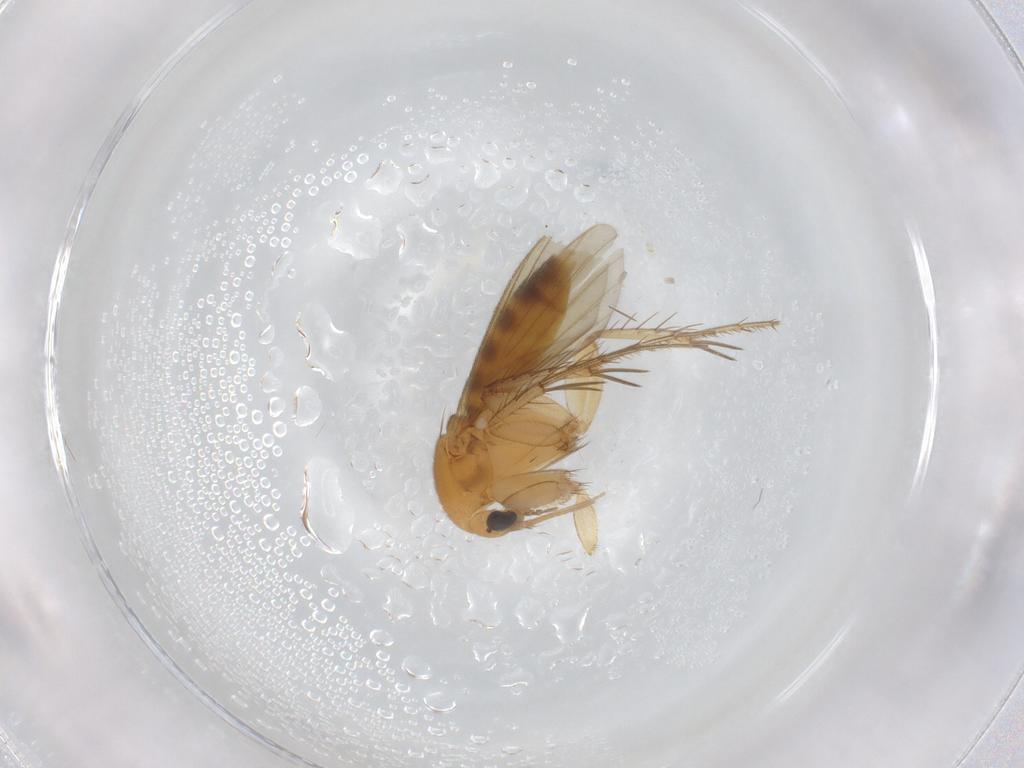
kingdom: Animalia
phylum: Arthropoda
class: Insecta
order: Diptera
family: Mycetophilidae
